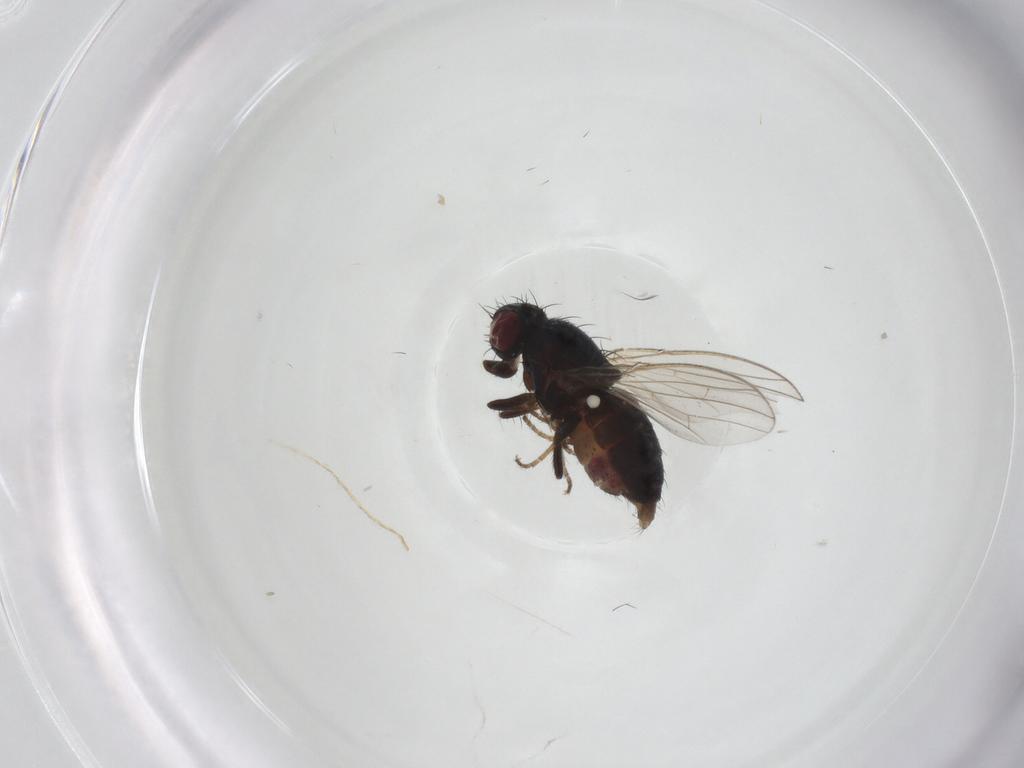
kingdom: Animalia
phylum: Arthropoda
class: Insecta
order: Diptera
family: Carnidae
